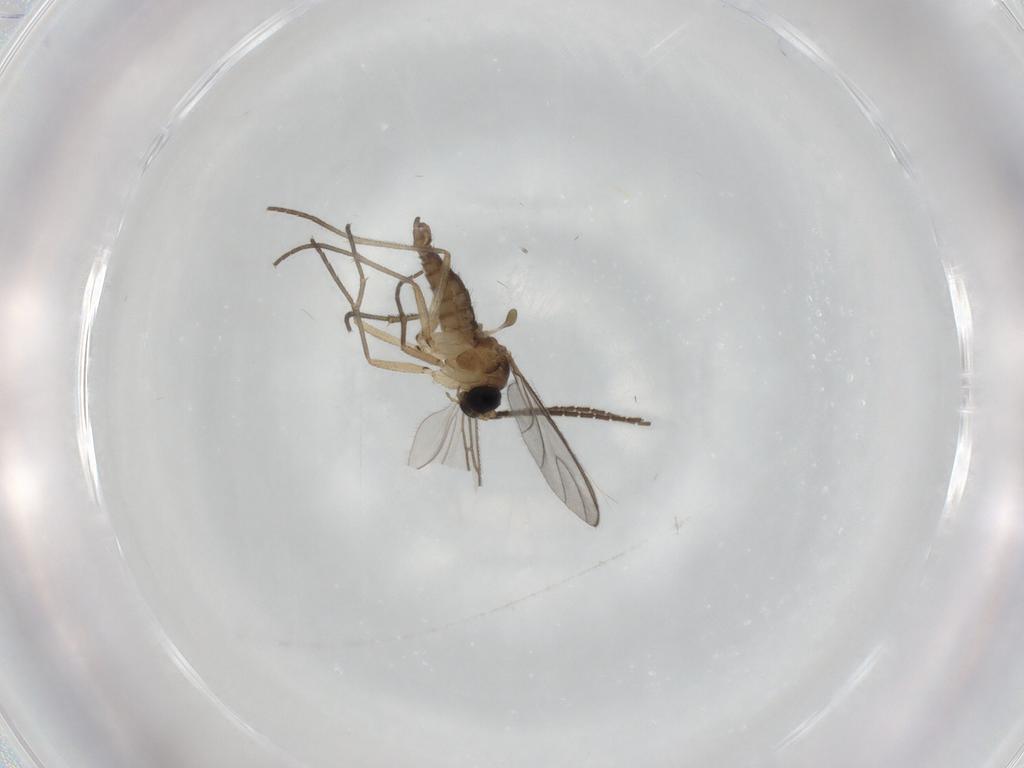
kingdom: Animalia
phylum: Arthropoda
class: Insecta
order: Diptera
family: Sciaridae
